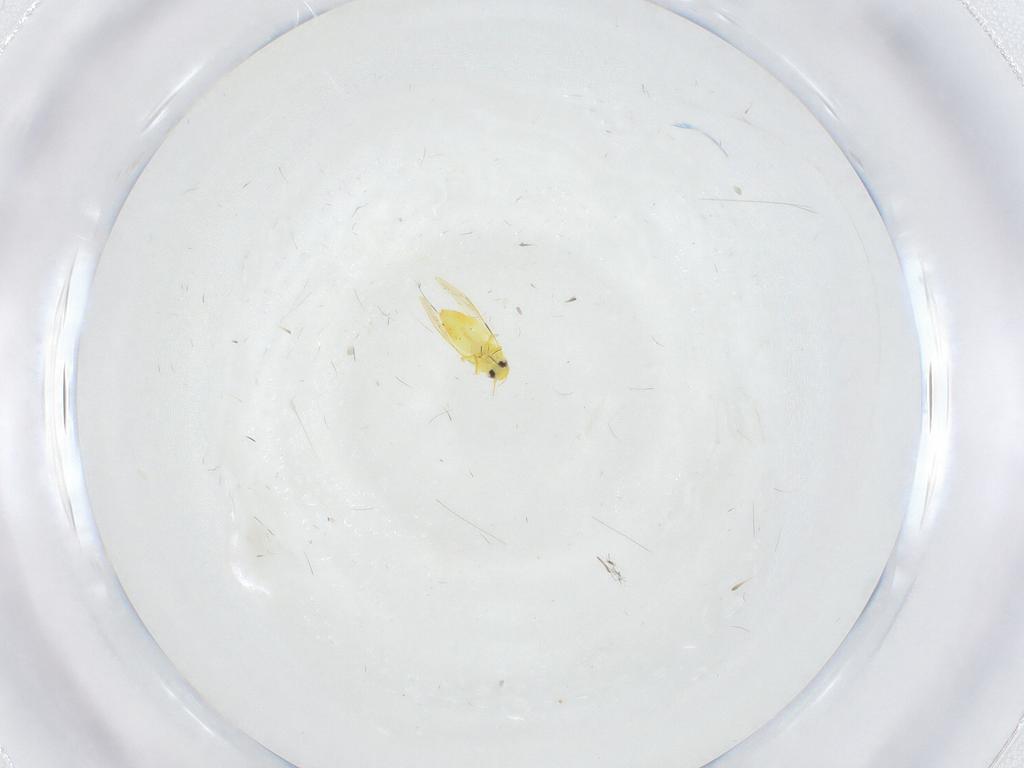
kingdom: Animalia
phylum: Arthropoda
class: Insecta
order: Hemiptera
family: Aleyrodidae
